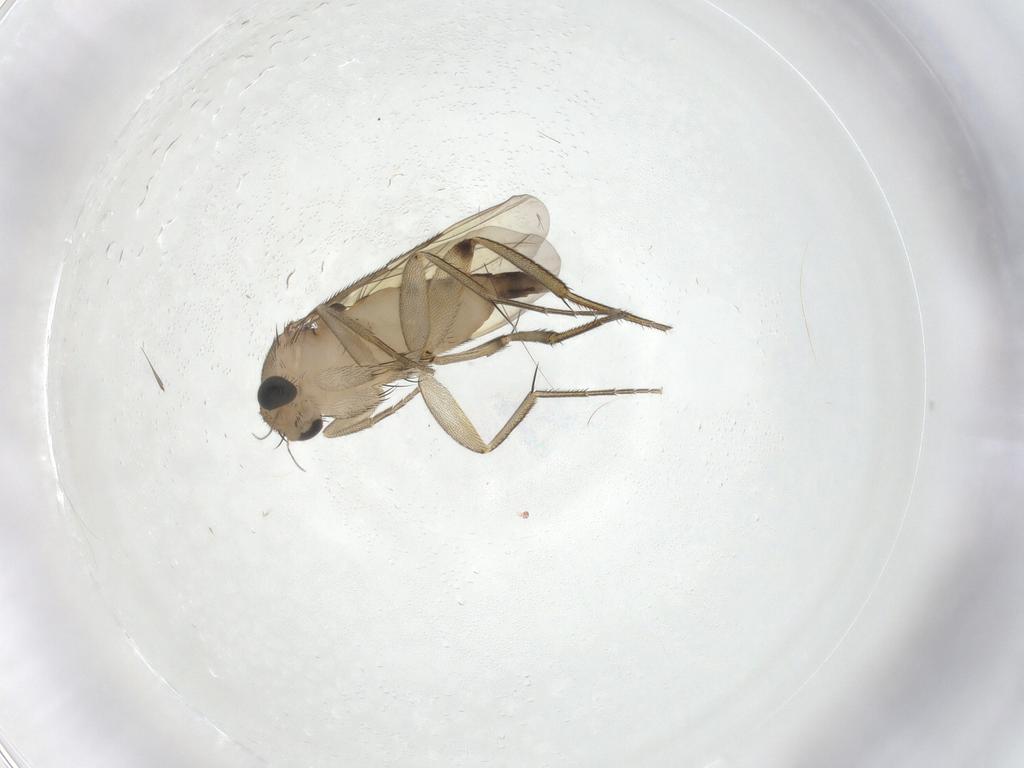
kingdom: Animalia
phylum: Arthropoda
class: Insecta
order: Diptera
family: Phoridae
